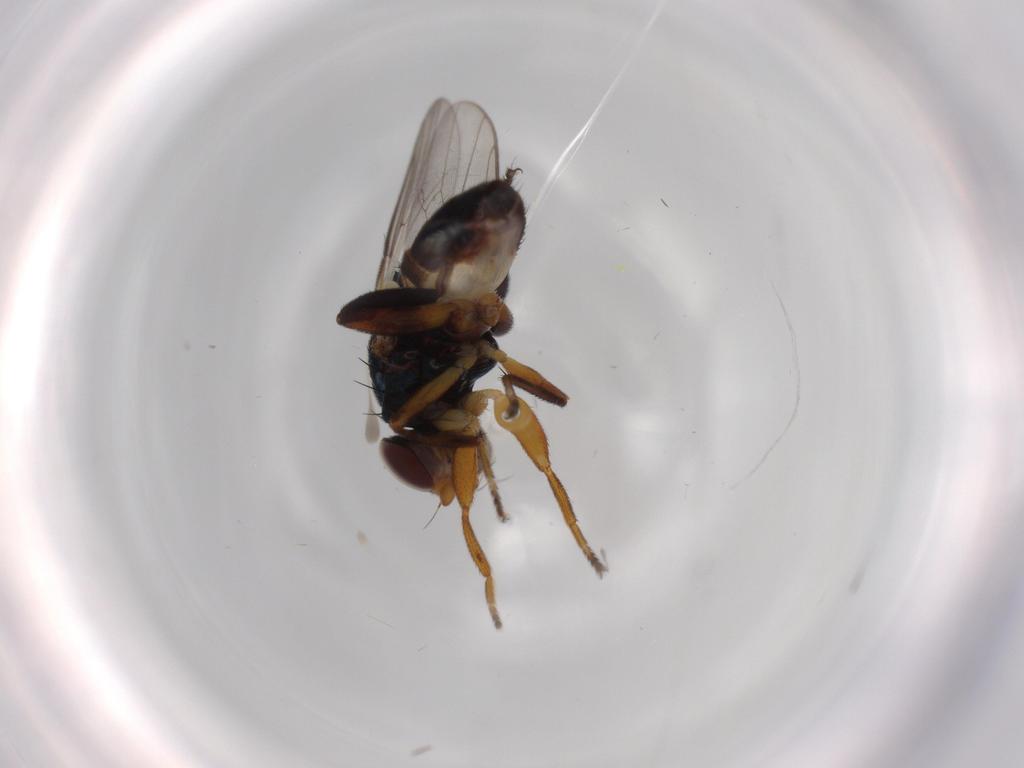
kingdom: Animalia
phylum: Arthropoda
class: Insecta
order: Diptera
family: Chloropidae
